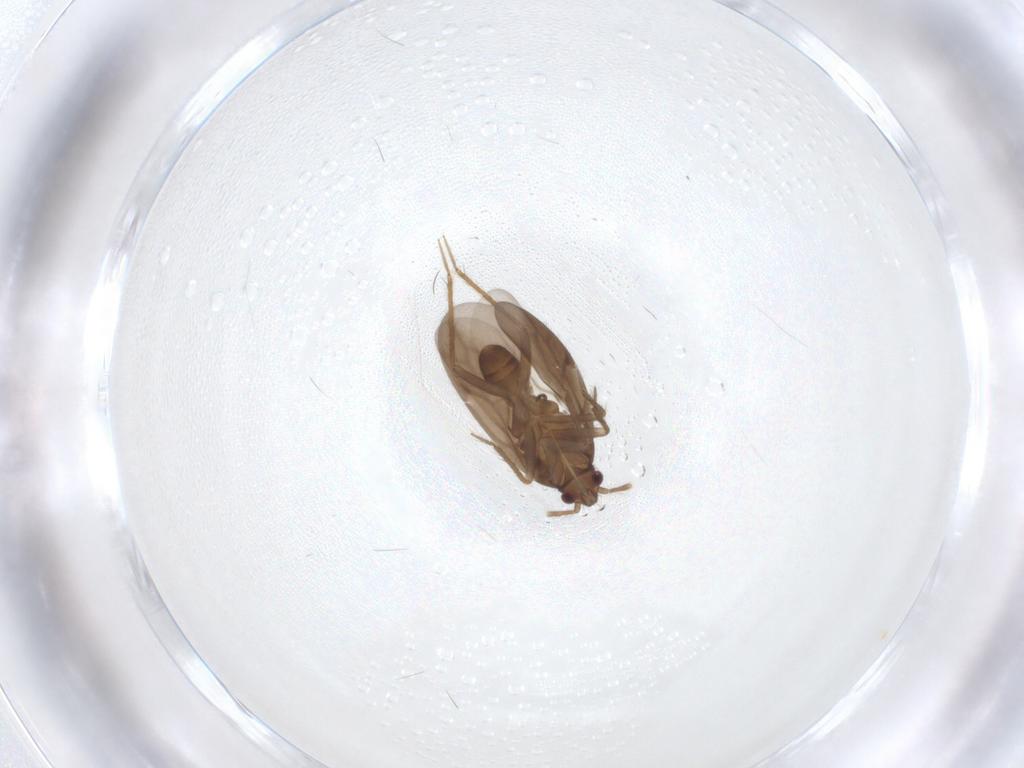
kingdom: Animalia
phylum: Arthropoda
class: Insecta
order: Hemiptera
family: Ceratocombidae
